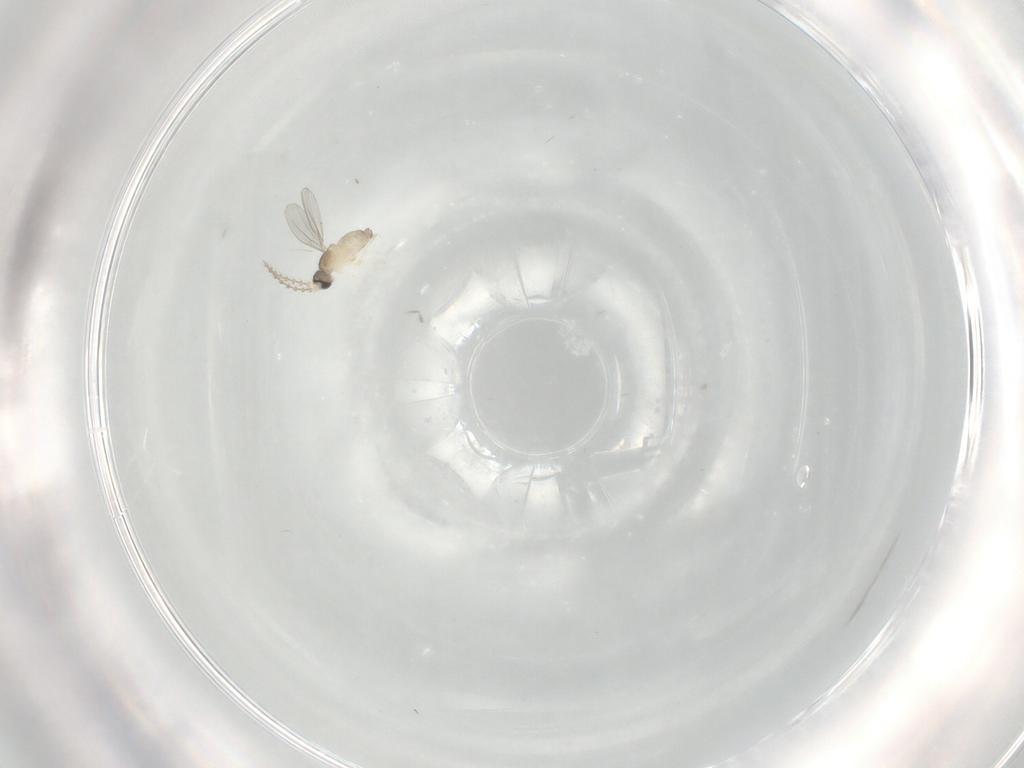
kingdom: Animalia
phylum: Arthropoda
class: Insecta
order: Diptera
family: Cecidomyiidae
